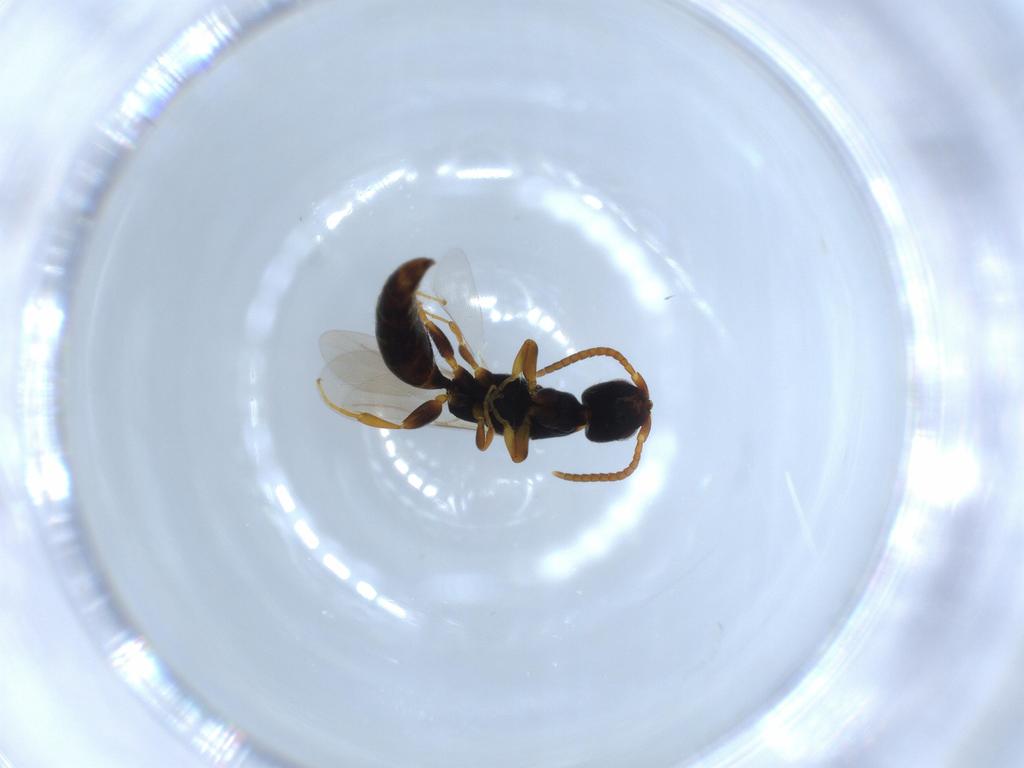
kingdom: Animalia
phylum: Arthropoda
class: Insecta
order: Hymenoptera
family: Bethylidae
